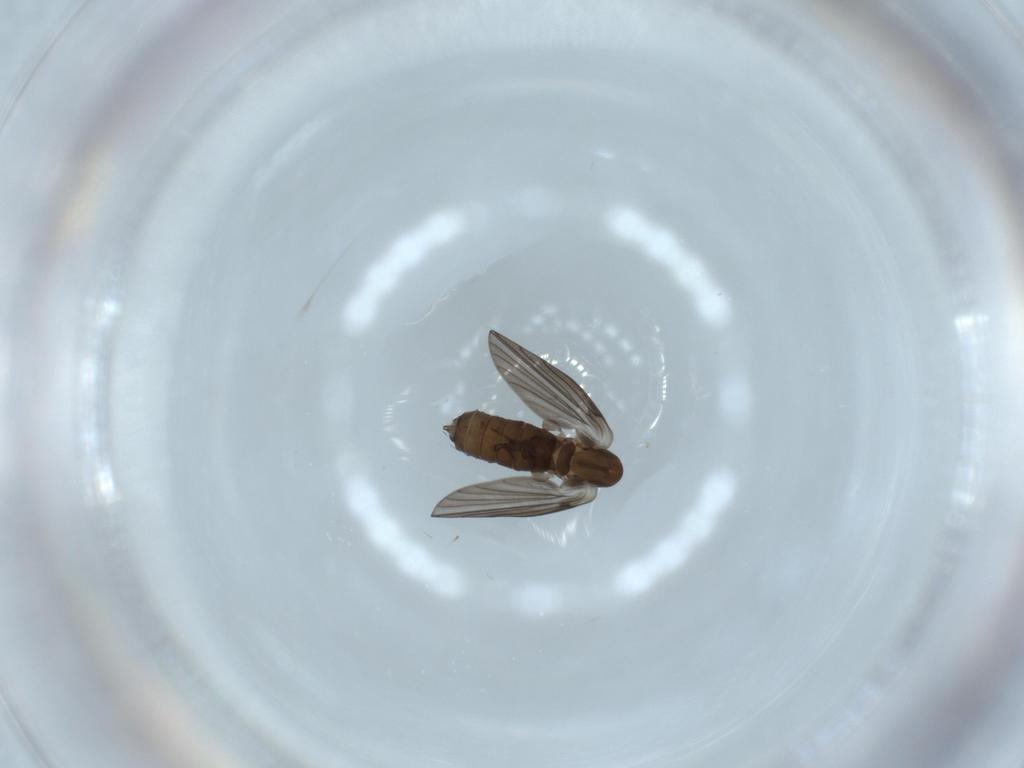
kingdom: Animalia
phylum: Arthropoda
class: Insecta
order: Diptera
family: Psychodidae
